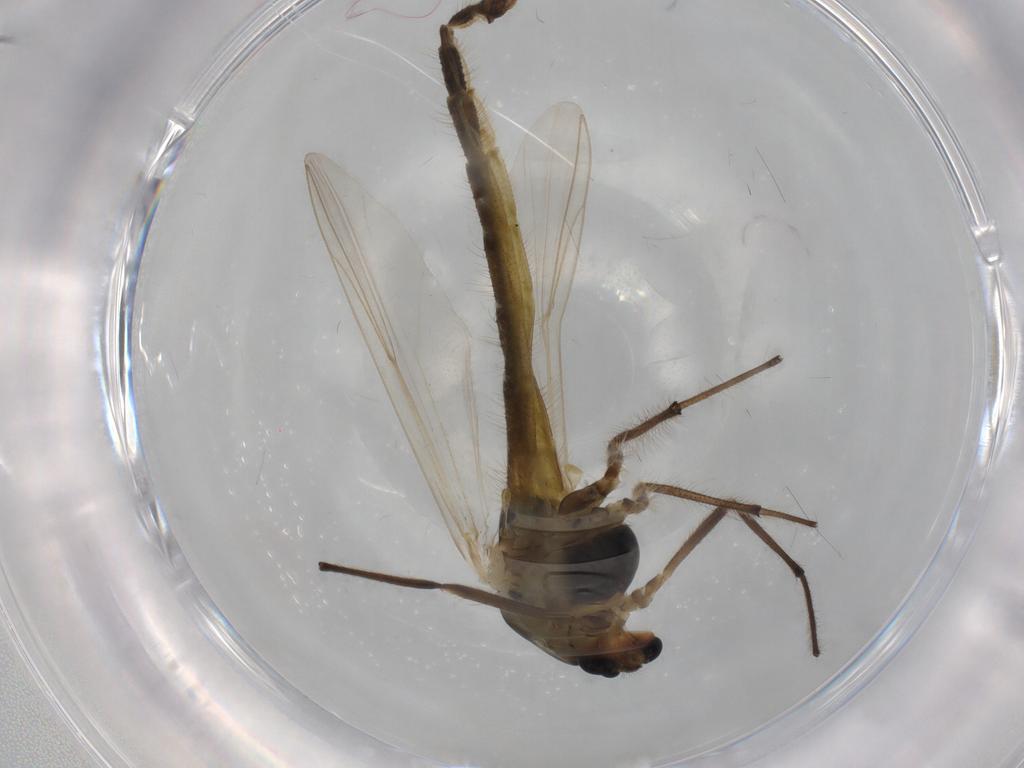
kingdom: Animalia
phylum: Arthropoda
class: Insecta
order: Diptera
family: Chironomidae
